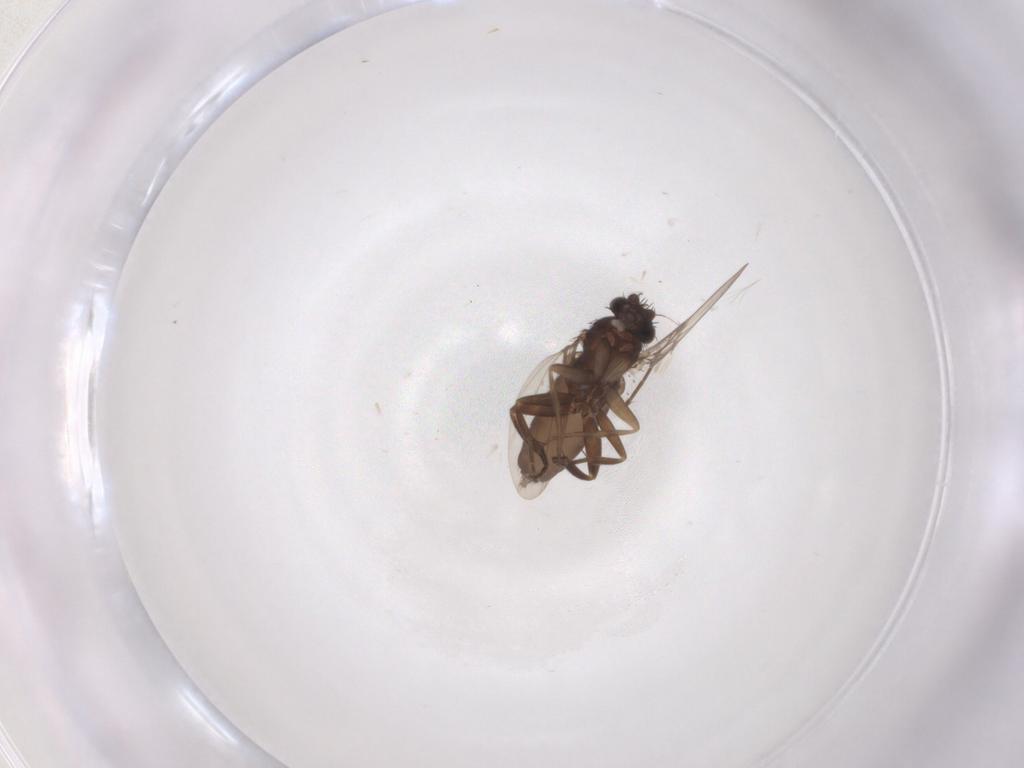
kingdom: Animalia
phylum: Arthropoda
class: Insecta
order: Diptera
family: Phoridae
